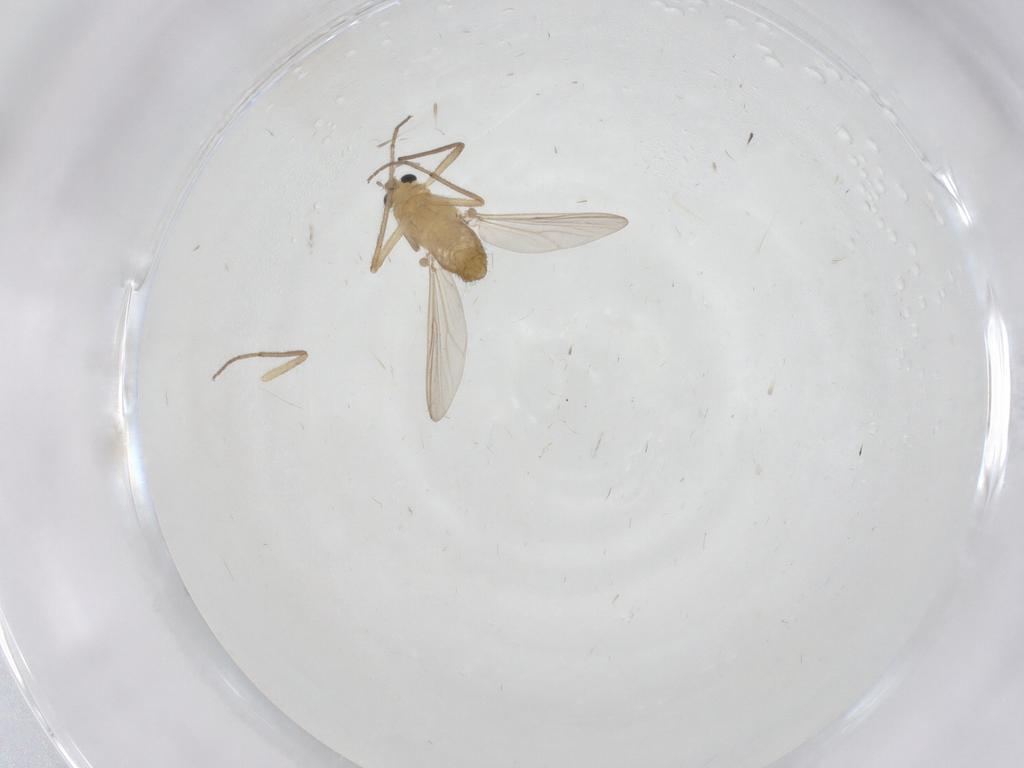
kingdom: Animalia
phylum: Arthropoda
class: Insecta
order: Diptera
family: Chironomidae
